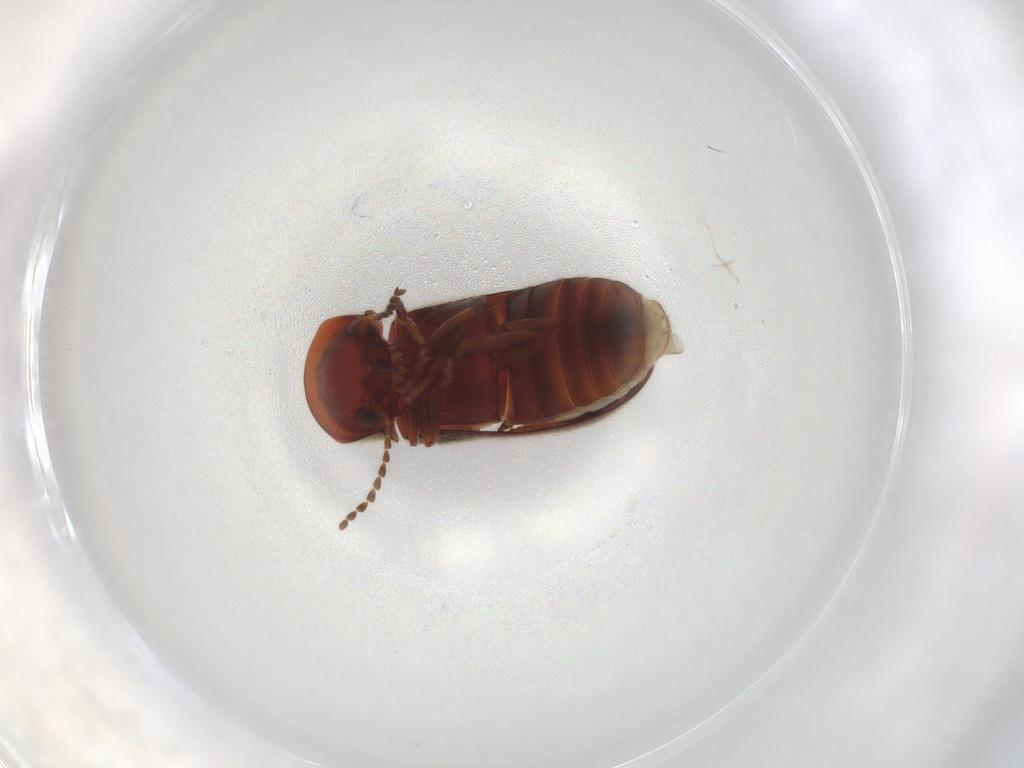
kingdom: Animalia
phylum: Arthropoda
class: Insecta
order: Coleoptera
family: Ptinidae
